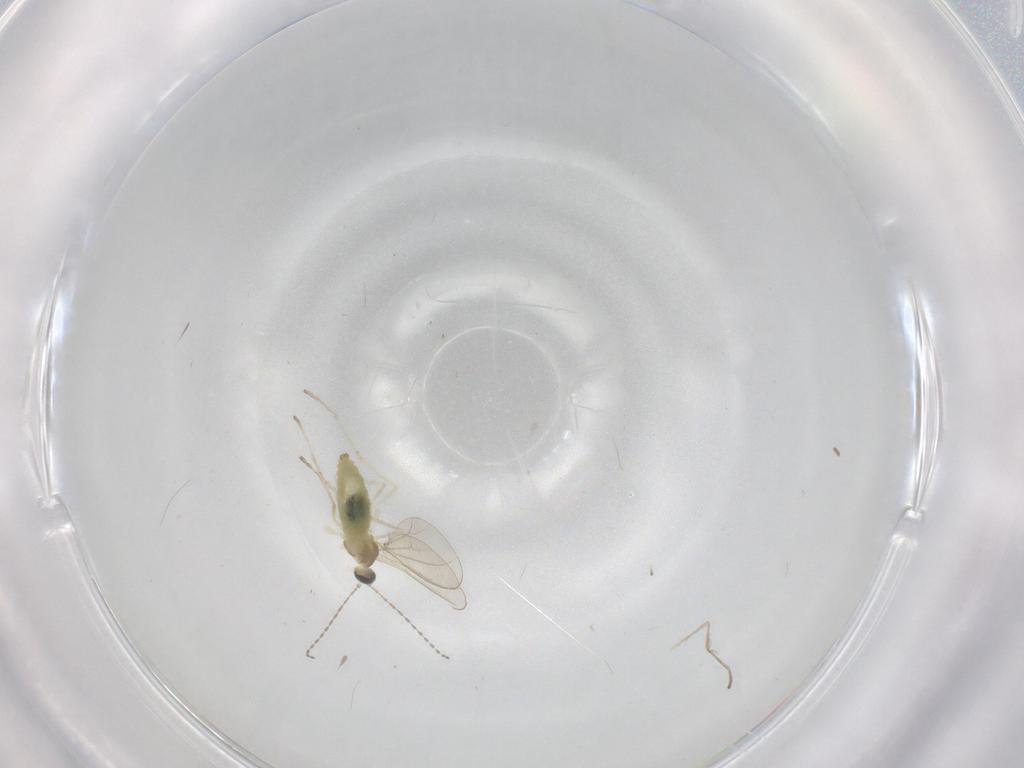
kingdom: Animalia
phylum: Arthropoda
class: Insecta
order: Diptera
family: Cecidomyiidae
